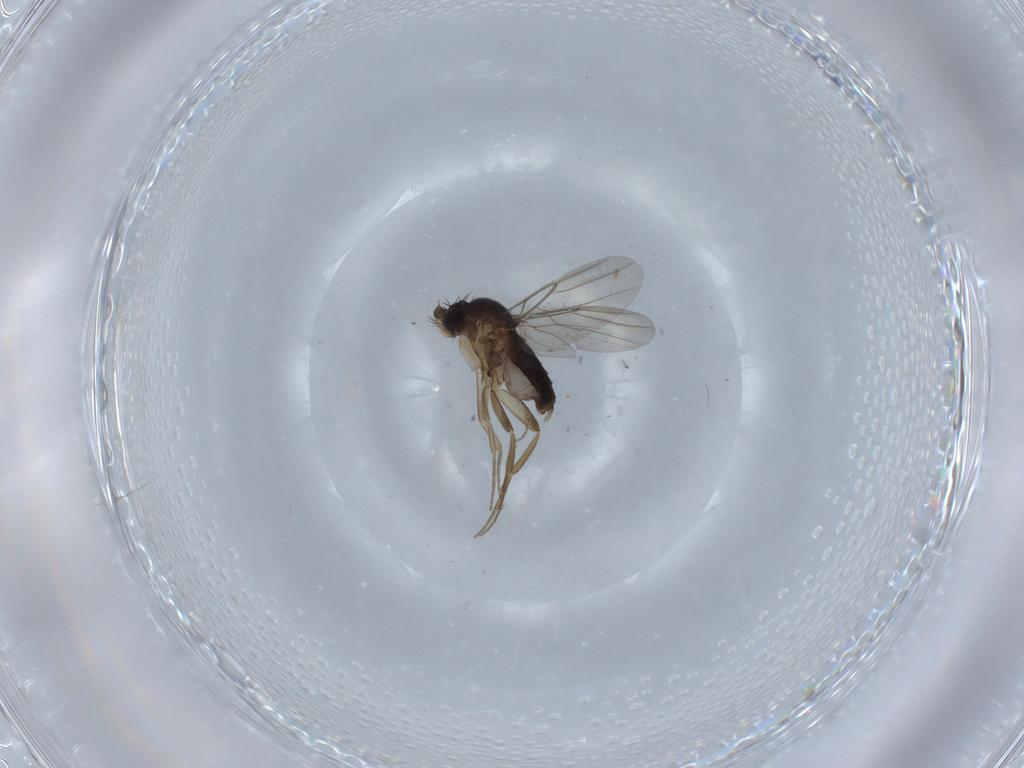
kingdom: Animalia
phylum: Arthropoda
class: Insecta
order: Diptera
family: Phoridae
